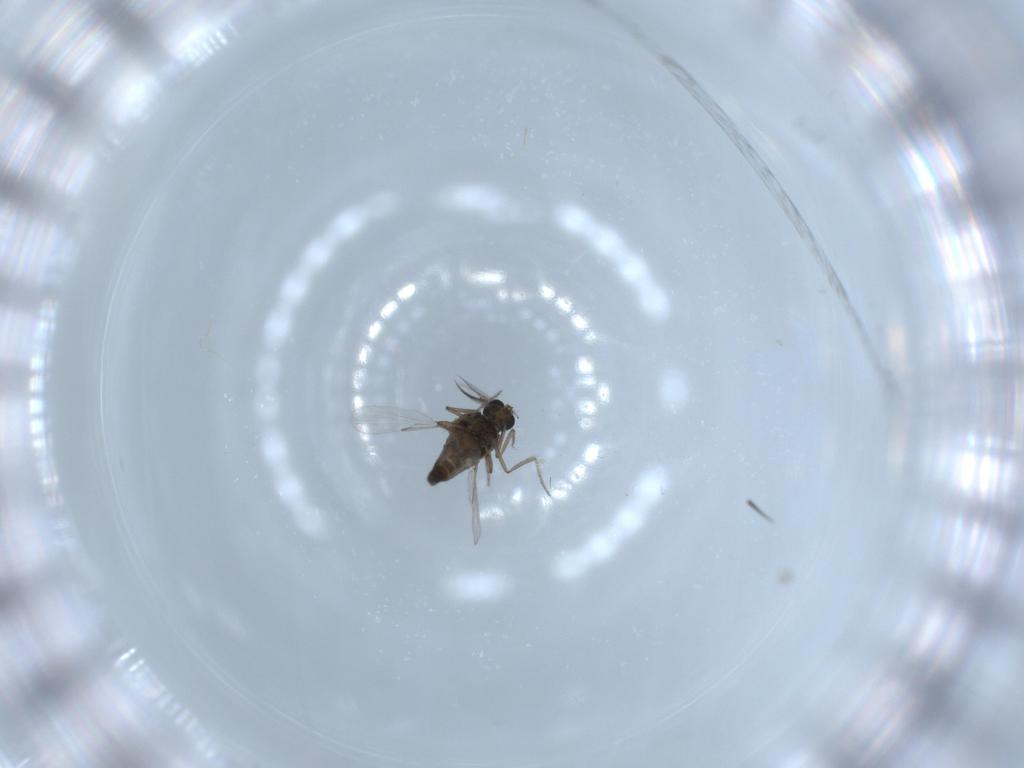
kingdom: Animalia
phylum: Arthropoda
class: Insecta
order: Diptera
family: Ceratopogonidae
